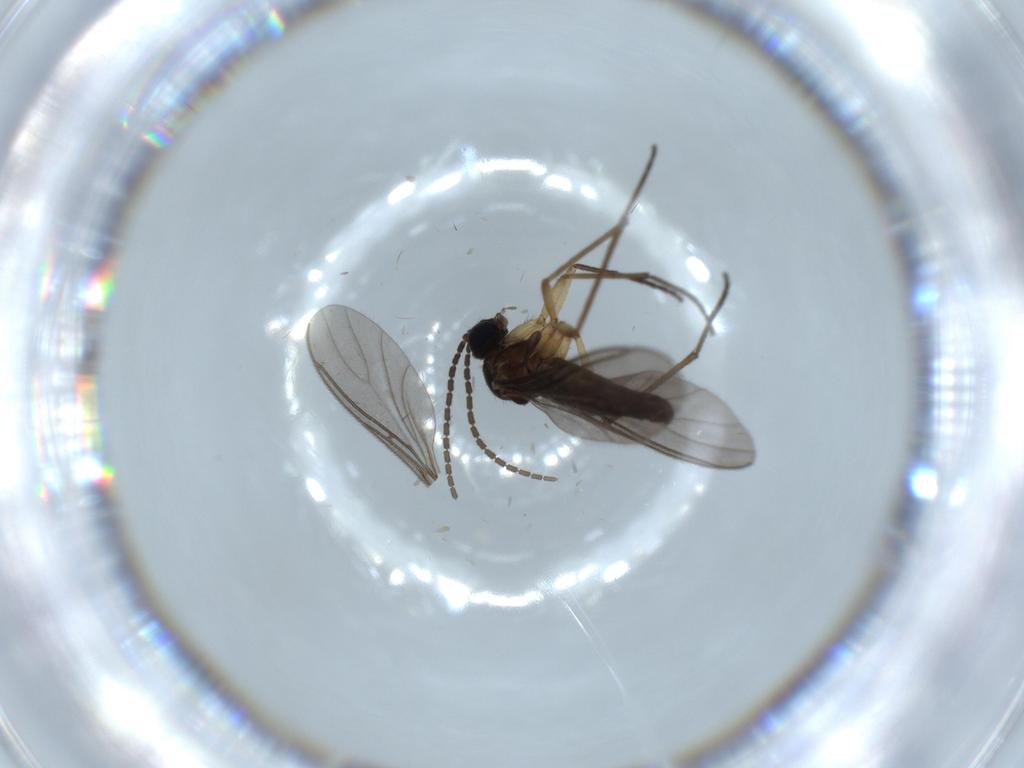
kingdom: Animalia
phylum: Arthropoda
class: Insecta
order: Diptera
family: Sciaridae
